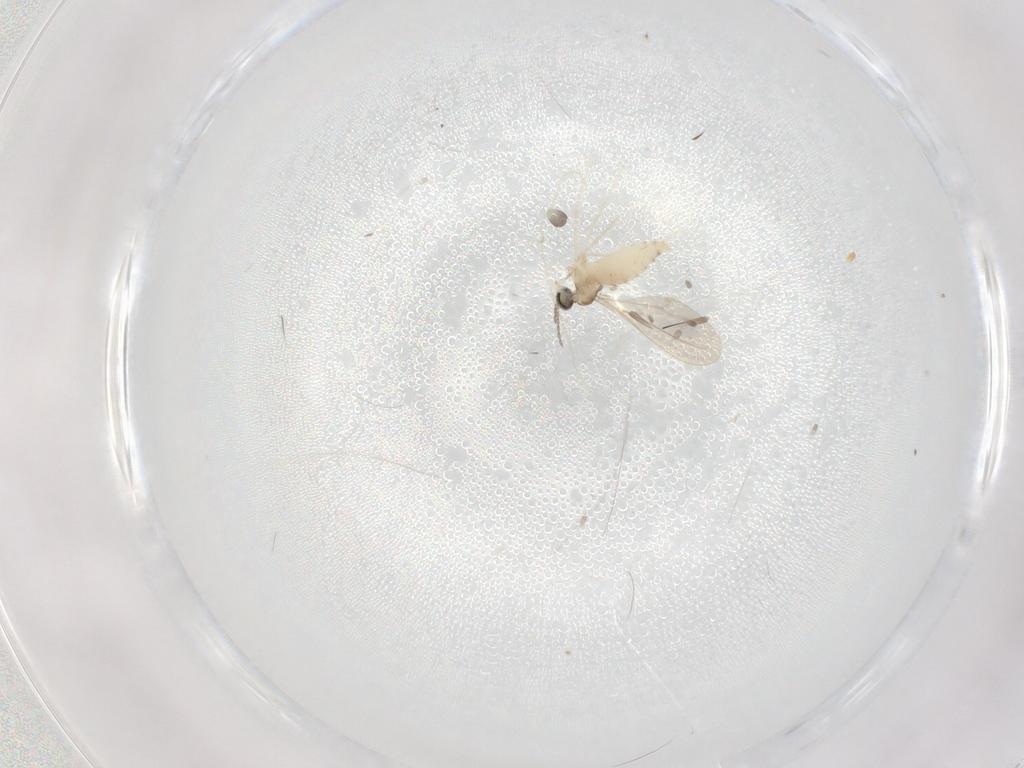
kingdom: Animalia
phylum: Arthropoda
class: Insecta
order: Diptera
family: Cecidomyiidae
